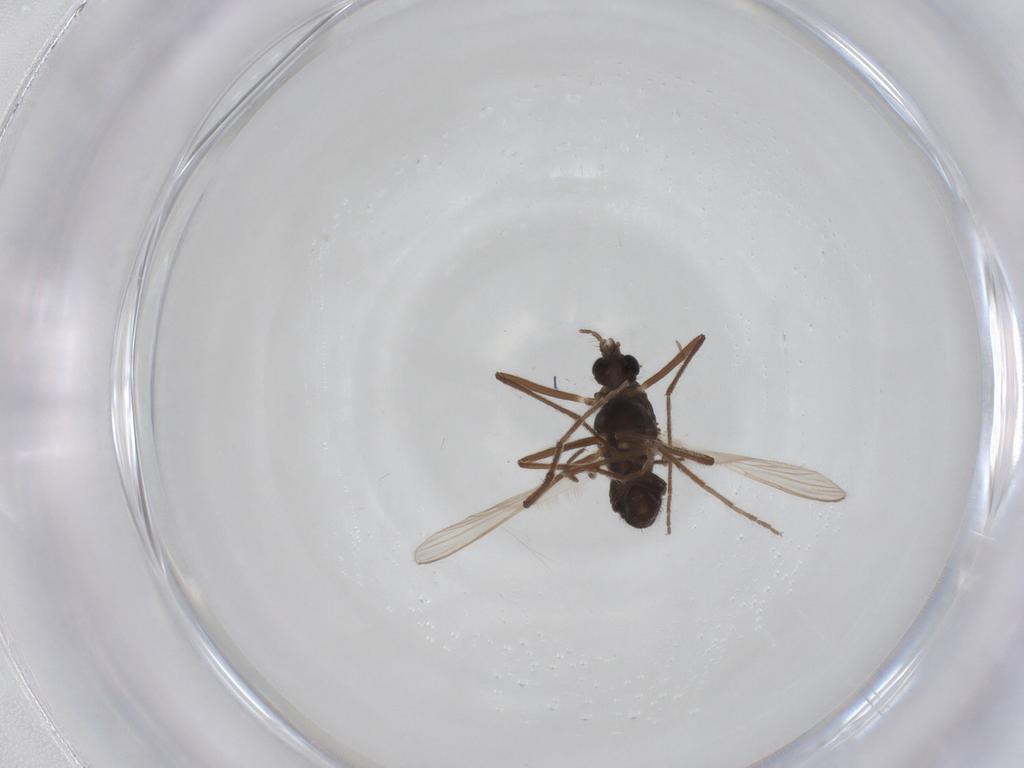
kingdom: Animalia
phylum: Arthropoda
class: Insecta
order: Diptera
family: Chironomidae
